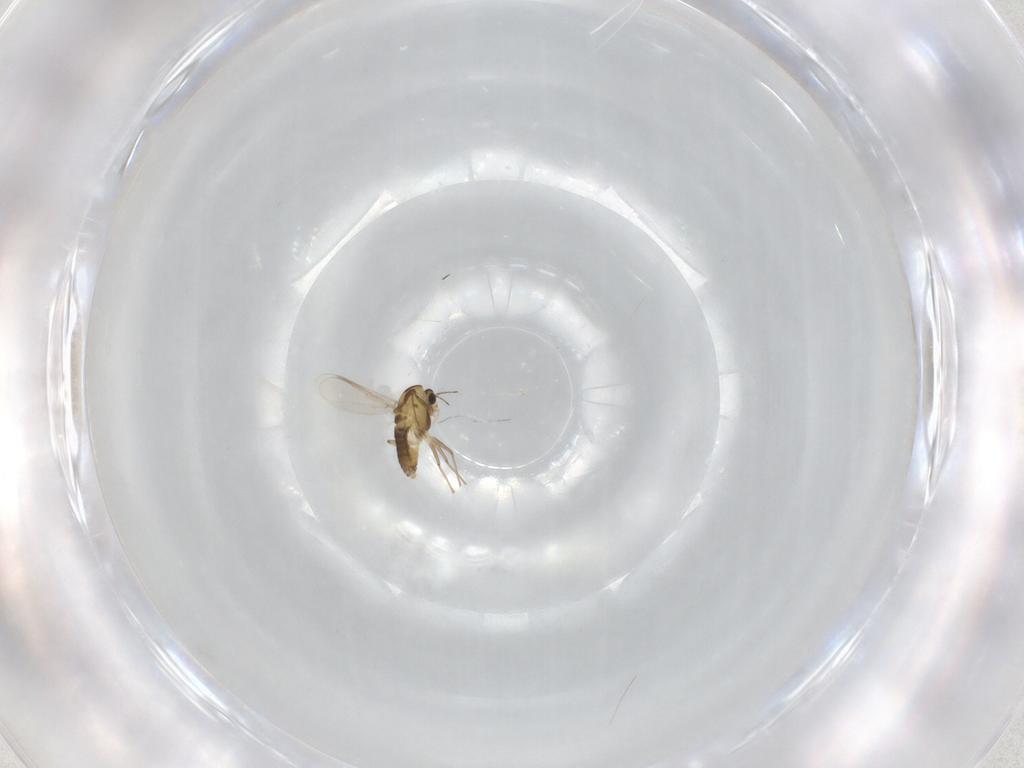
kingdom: Animalia
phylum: Arthropoda
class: Insecta
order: Diptera
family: Chironomidae
